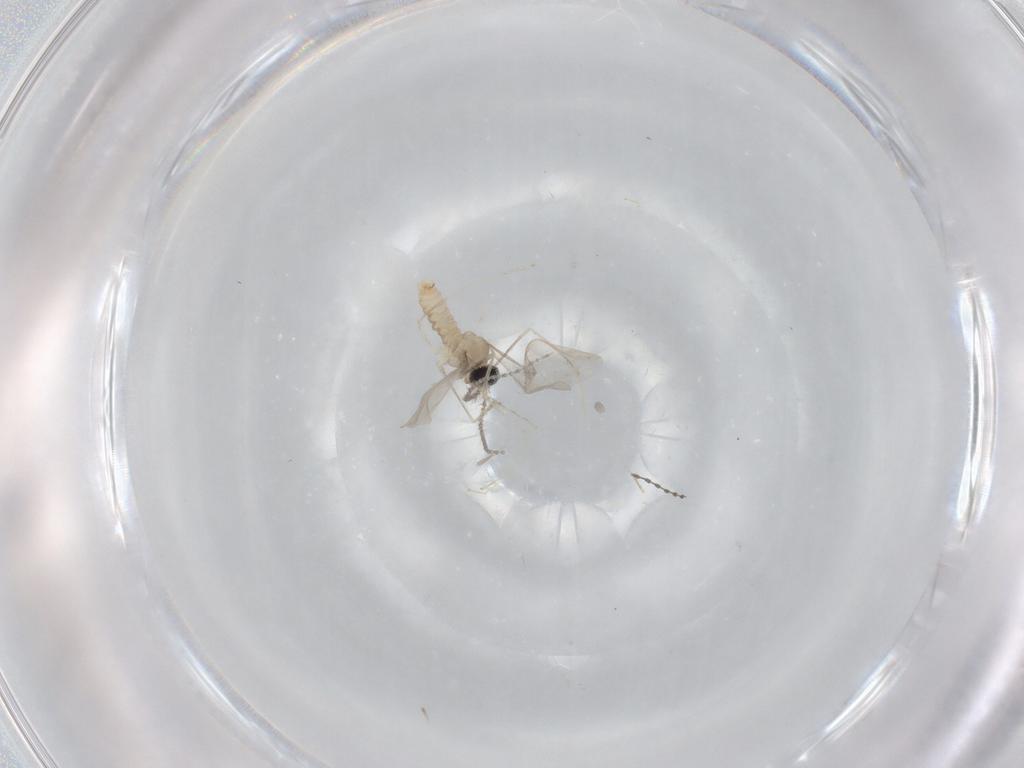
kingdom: Animalia
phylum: Arthropoda
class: Insecta
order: Diptera
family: Cecidomyiidae
